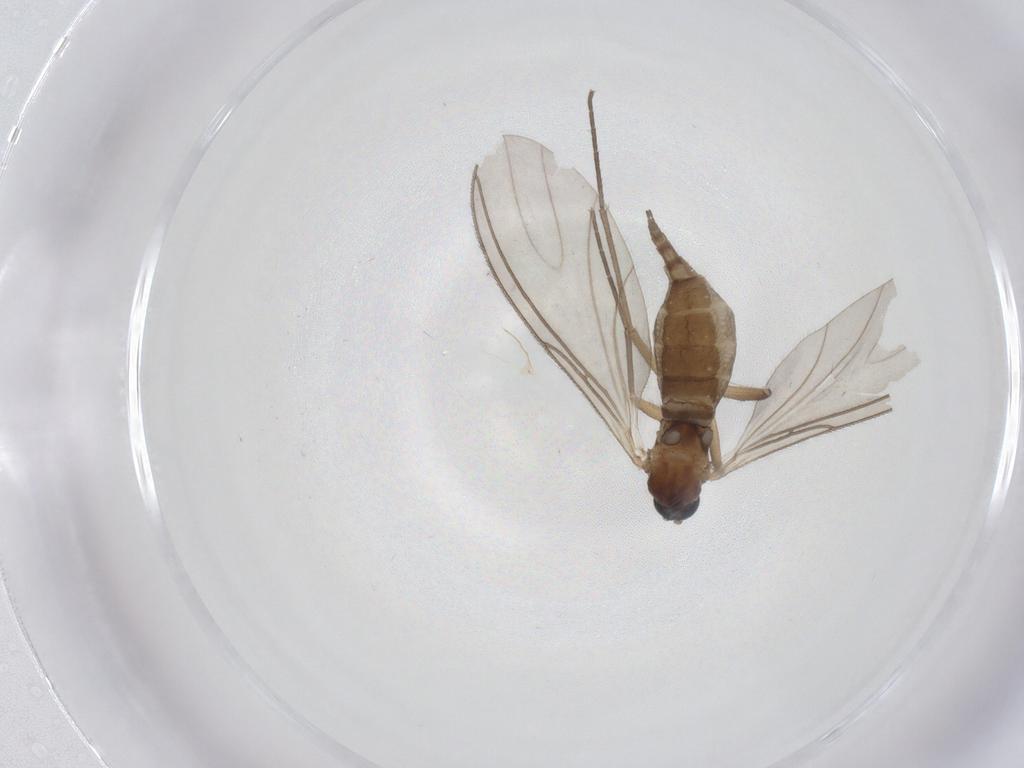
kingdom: Animalia
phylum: Arthropoda
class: Insecta
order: Diptera
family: Sciaridae
